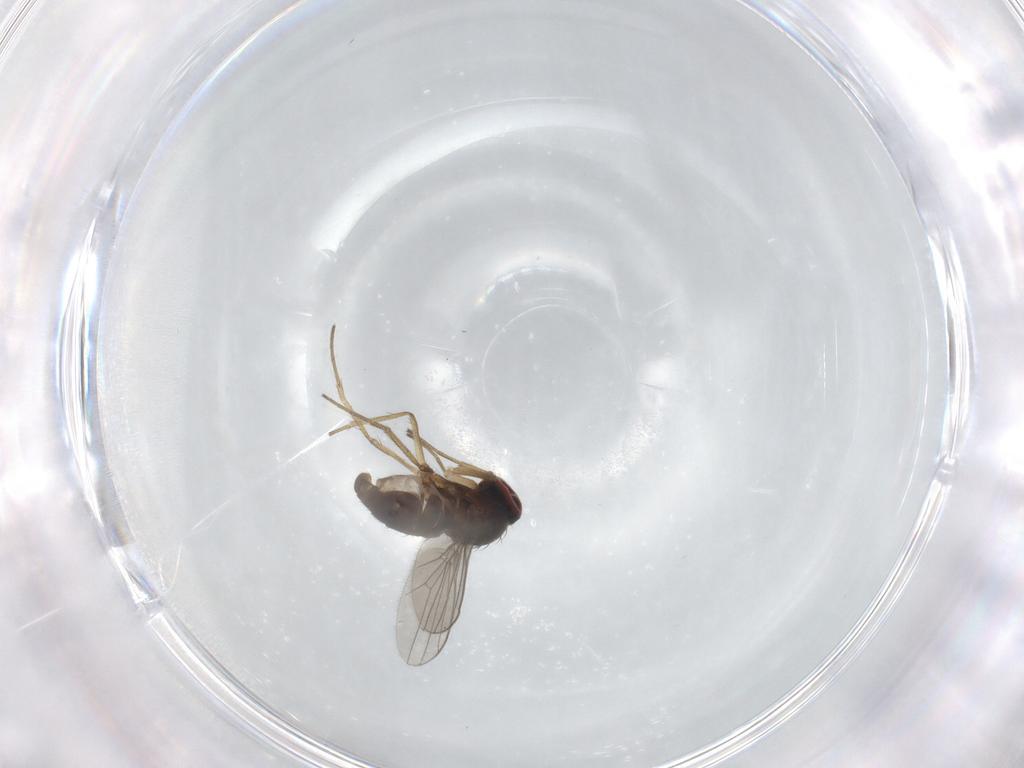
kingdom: Animalia
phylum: Arthropoda
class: Insecta
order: Diptera
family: Dolichopodidae
